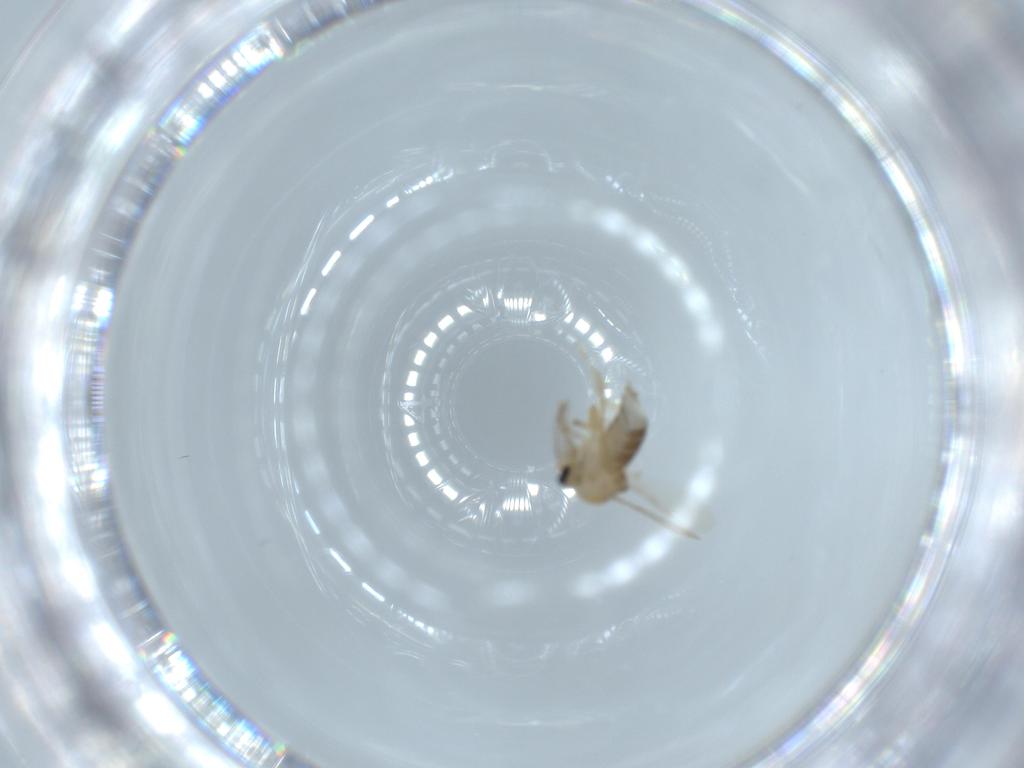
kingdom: Animalia
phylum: Arthropoda
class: Insecta
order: Diptera
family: Ceratopogonidae
